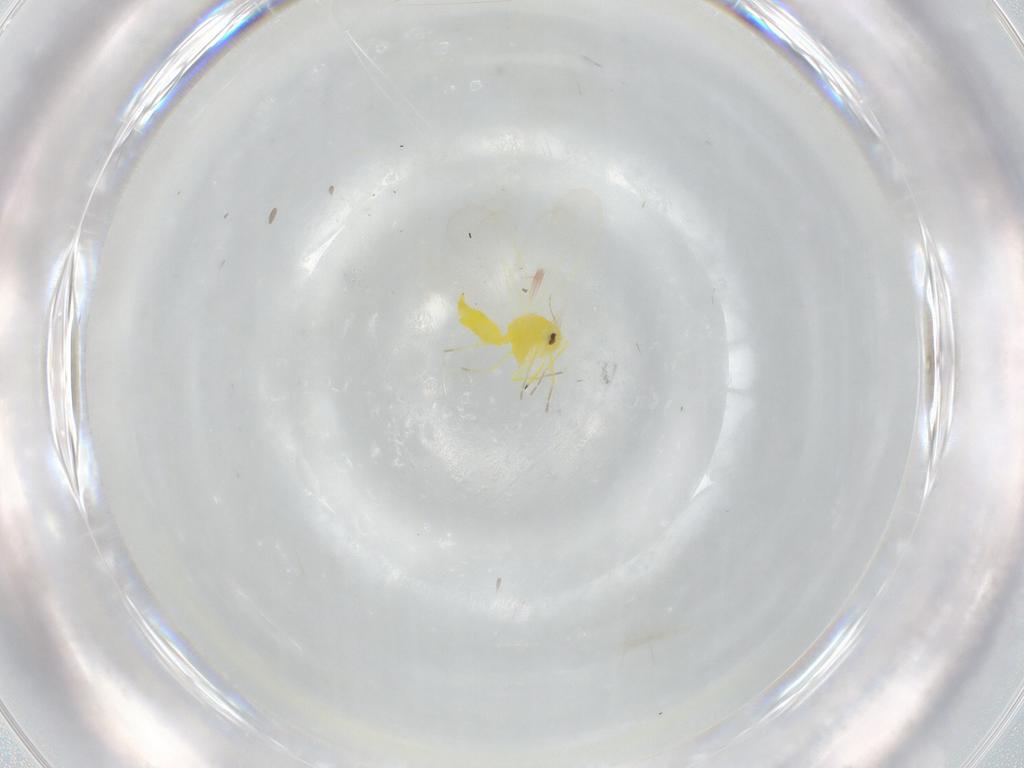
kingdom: Animalia
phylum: Arthropoda
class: Insecta
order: Hemiptera
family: Aleyrodidae
